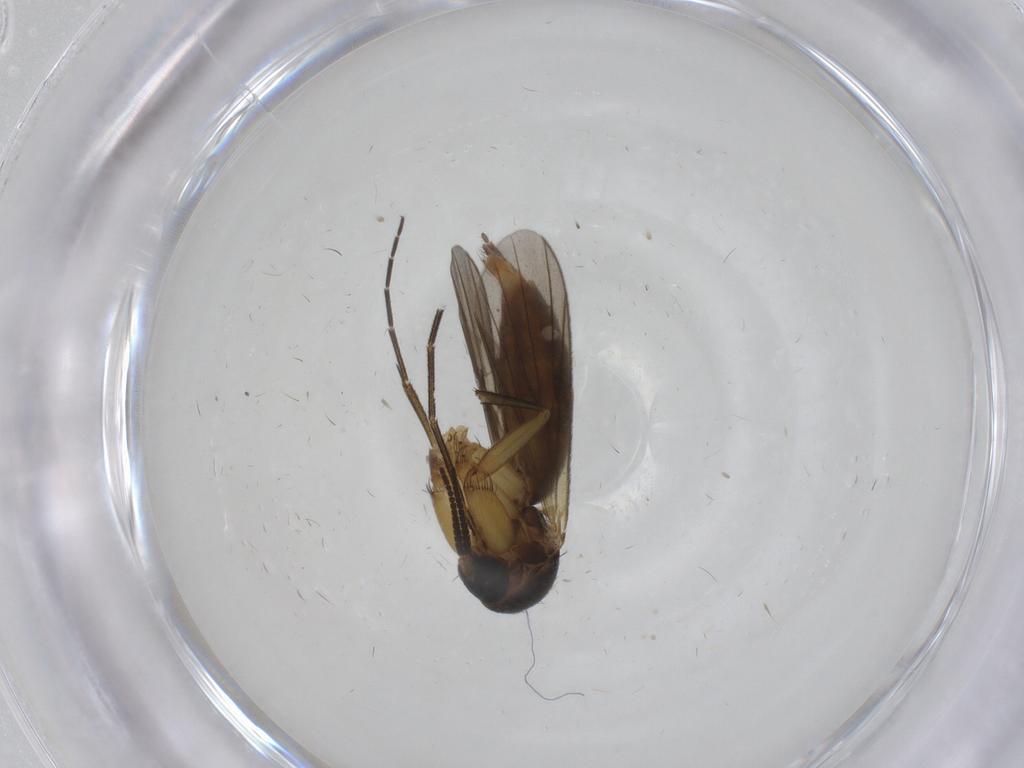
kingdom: Animalia
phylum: Arthropoda
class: Insecta
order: Diptera
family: Mycetophilidae
